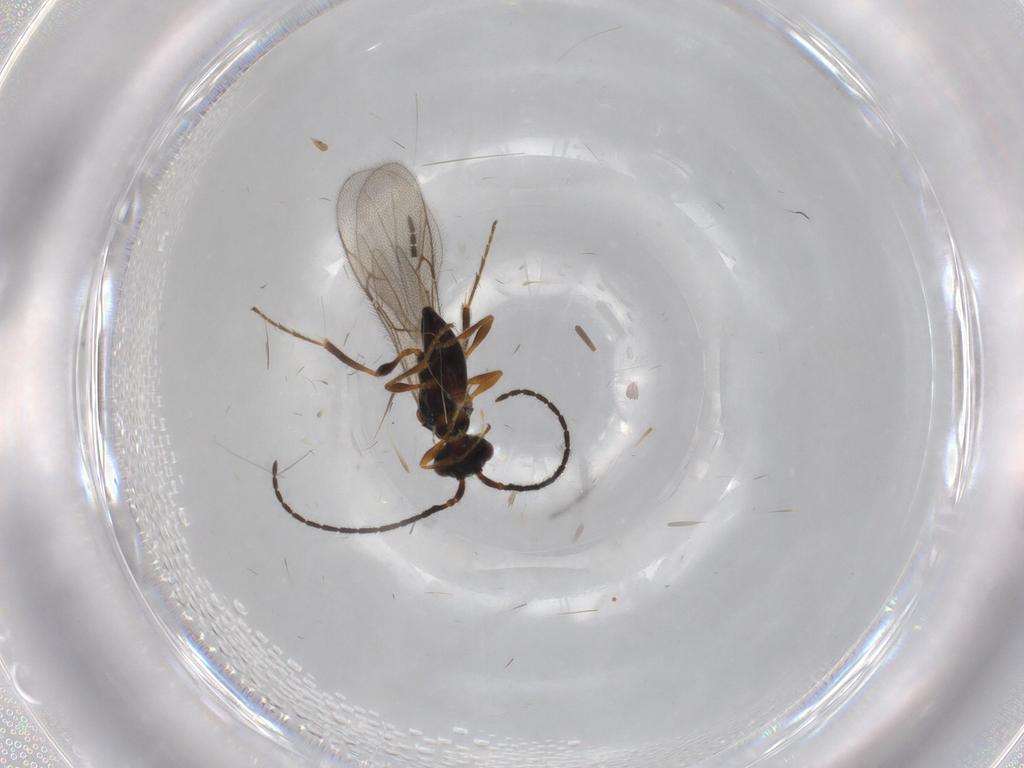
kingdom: Animalia
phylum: Arthropoda
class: Insecta
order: Hymenoptera
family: Diapriidae
